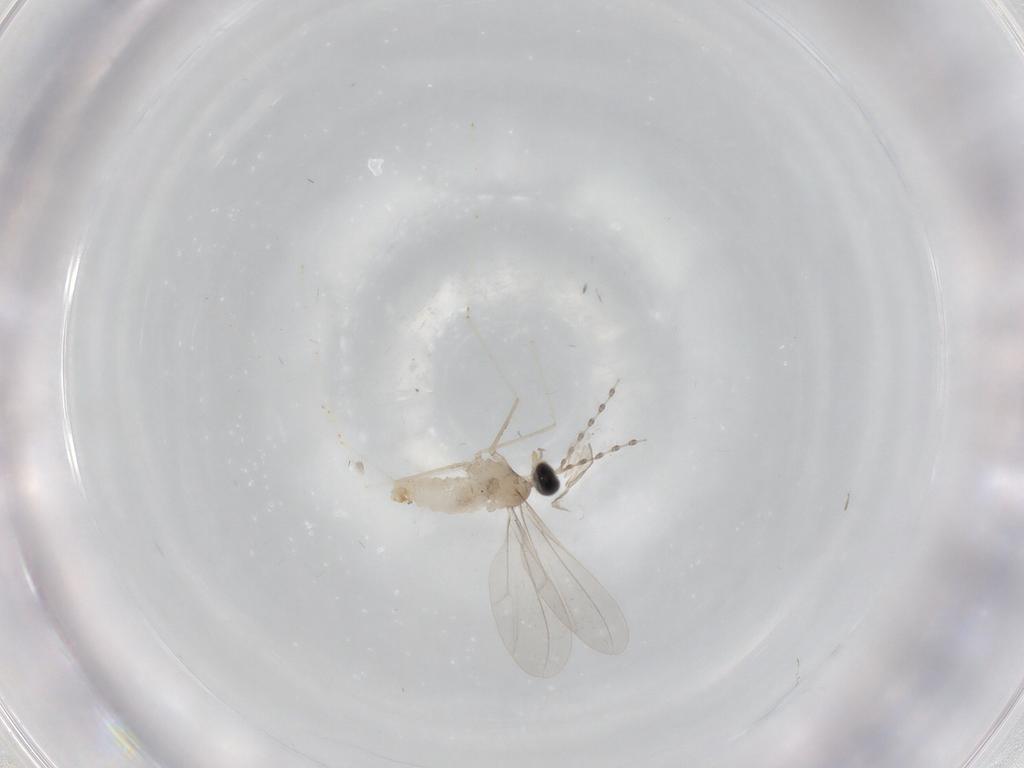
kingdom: Animalia
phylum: Arthropoda
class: Insecta
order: Diptera
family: Cecidomyiidae
